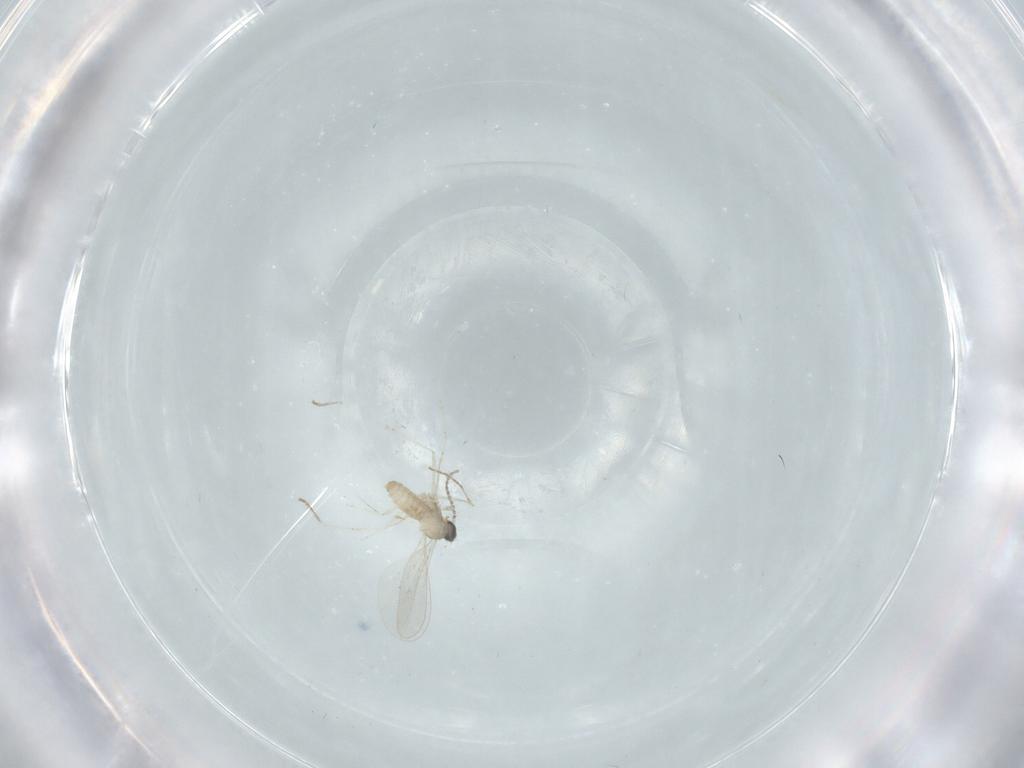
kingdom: Animalia
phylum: Arthropoda
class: Insecta
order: Diptera
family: Cecidomyiidae
